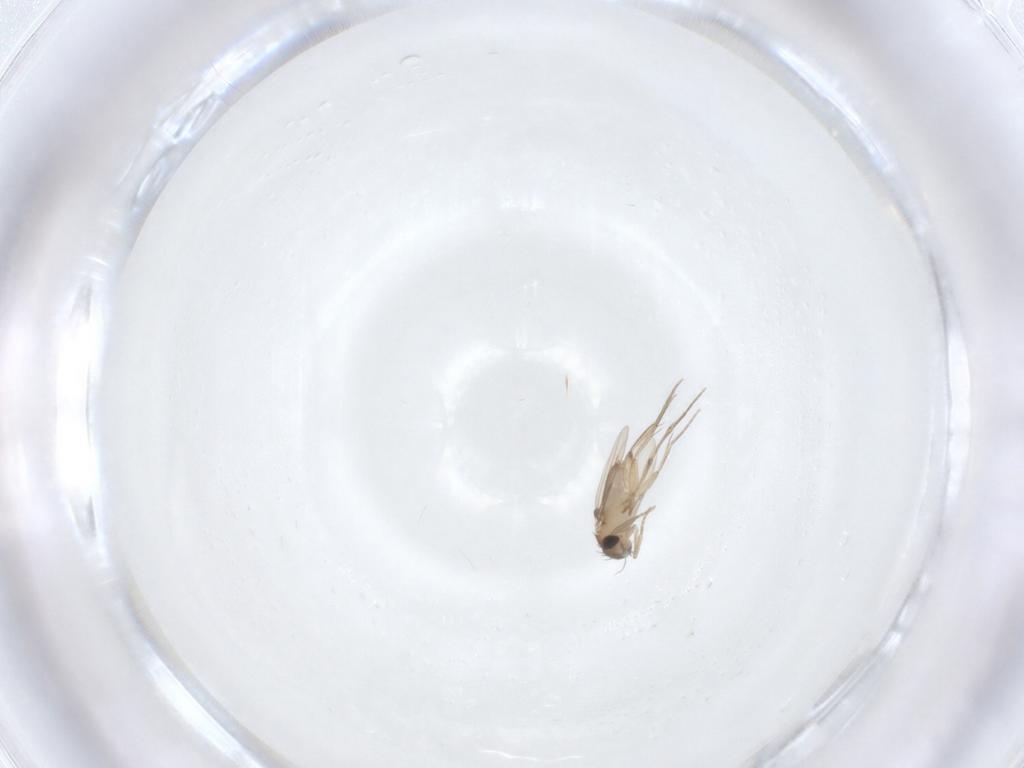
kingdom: Animalia
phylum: Arthropoda
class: Insecta
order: Diptera
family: Phoridae
